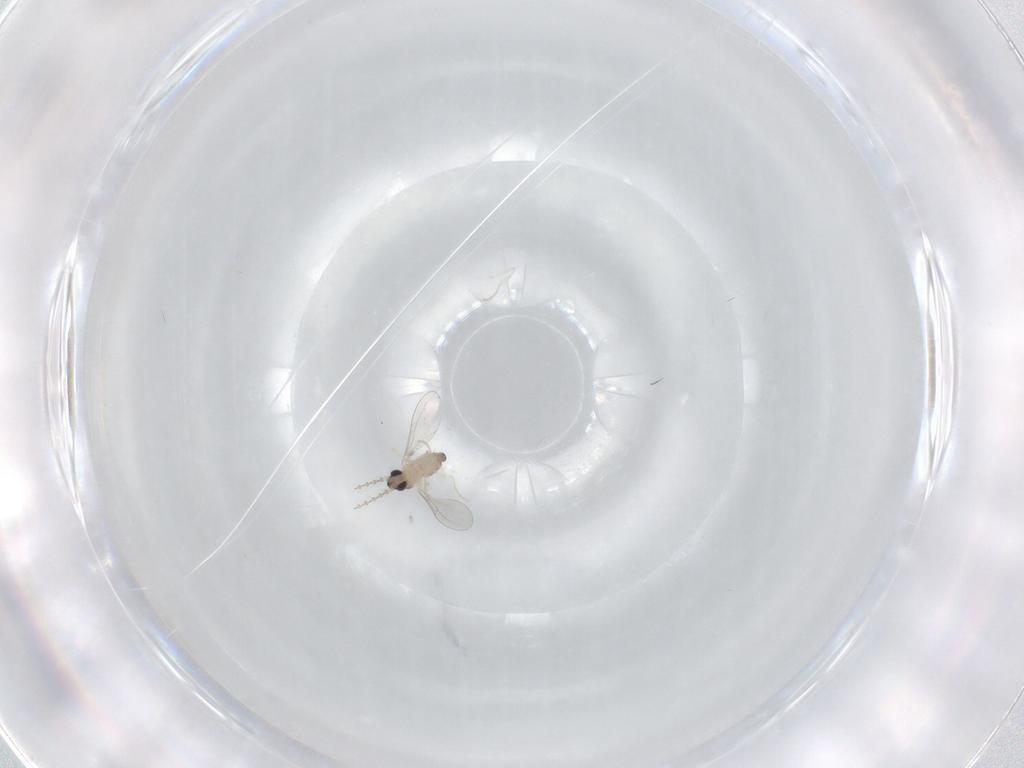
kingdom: Animalia
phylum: Arthropoda
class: Insecta
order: Diptera
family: Cecidomyiidae
